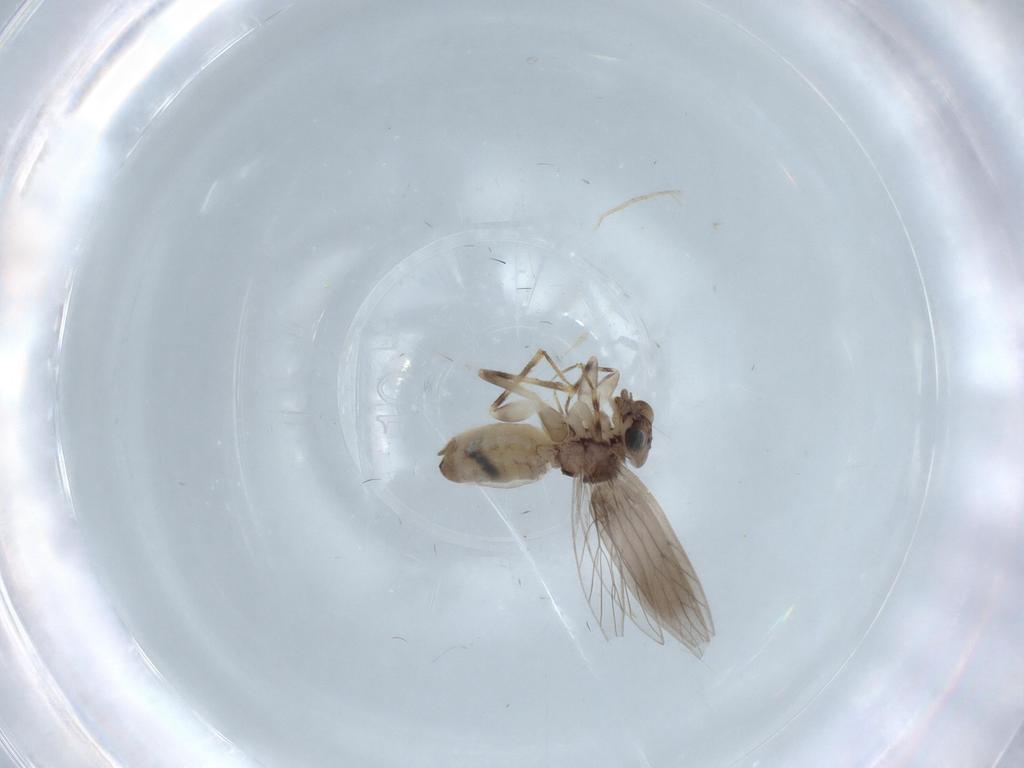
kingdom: Animalia
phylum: Arthropoda
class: Insecta
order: Psocodea
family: Lepidopsocidae
